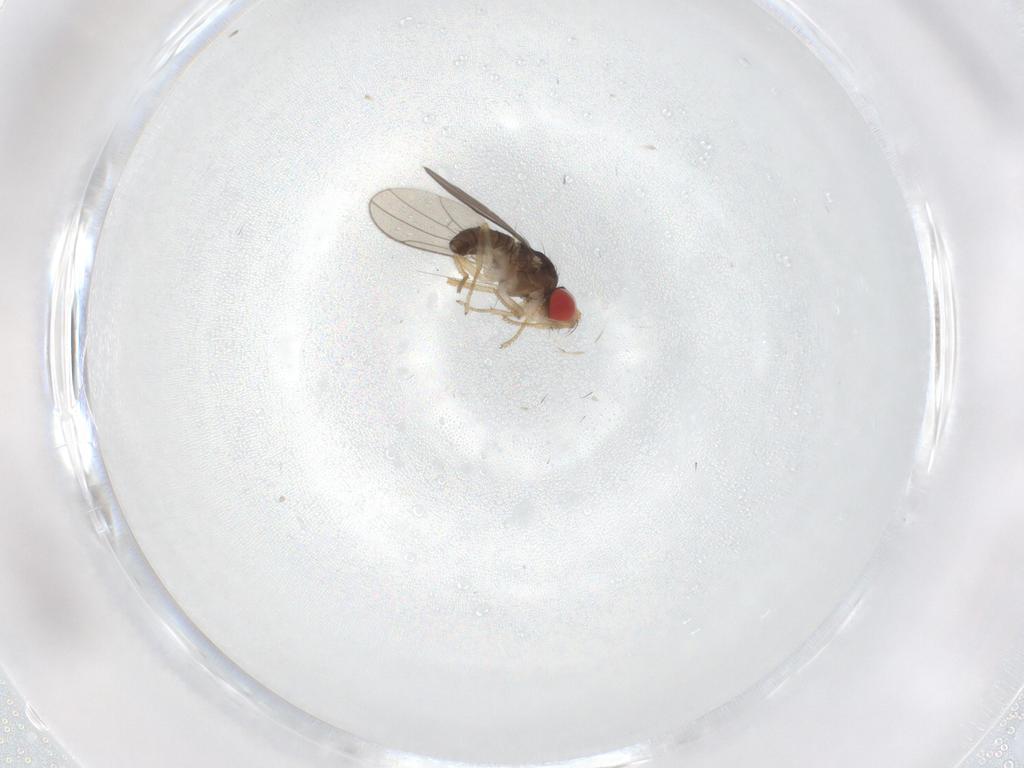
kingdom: Animalia
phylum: Arthropoda
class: Insecta
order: Diptera
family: Drosophilidae
